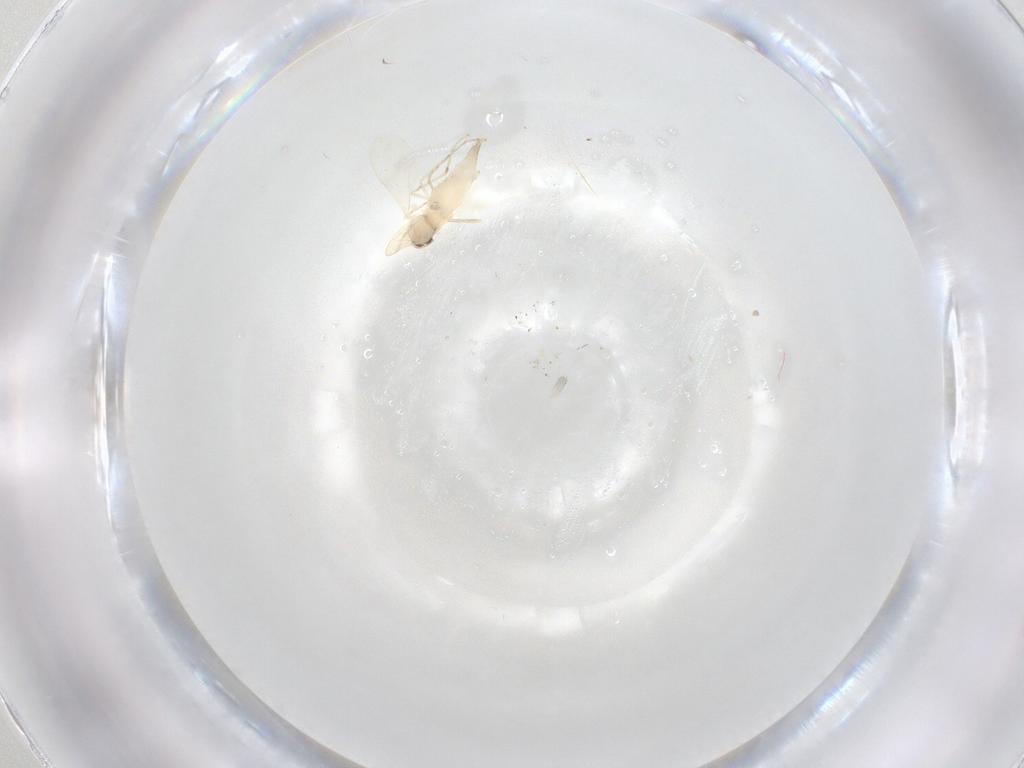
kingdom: Animalia
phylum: Arthropoda
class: Insecta
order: Diptera
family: Cecidomyiidae
